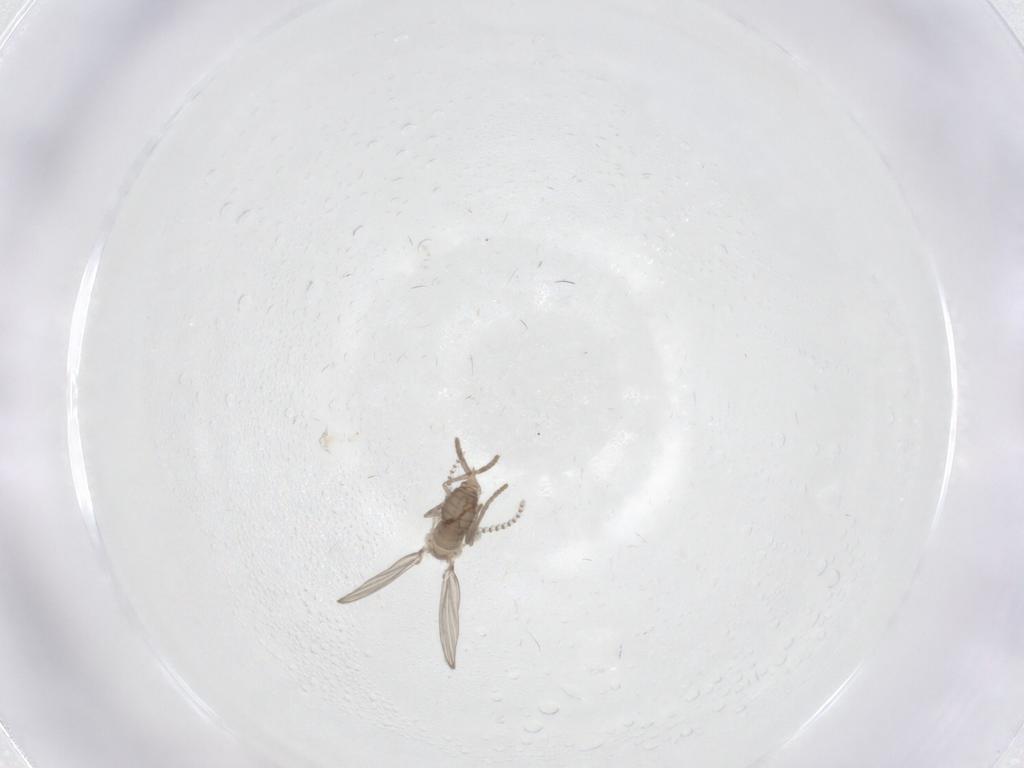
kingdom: Animalia
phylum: Arthropoda
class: Insecta
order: Diptera
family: Psychodidae
